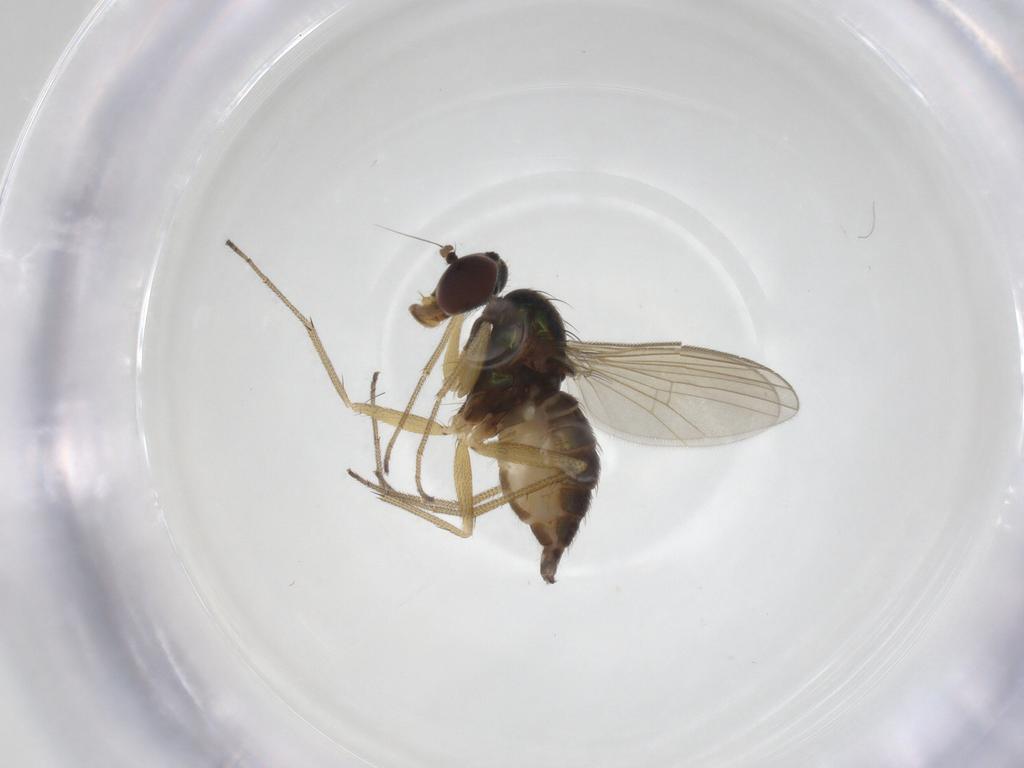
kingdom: Animalia
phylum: Arthropoda
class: Insecta
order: Diptera
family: Dolichopodidae
